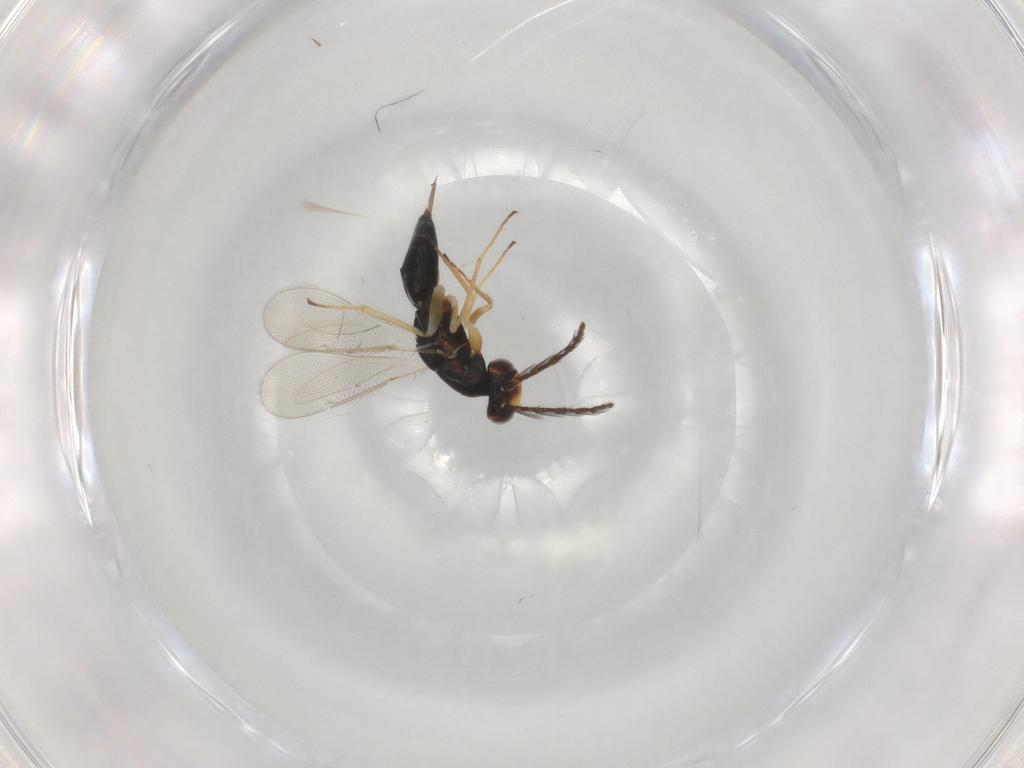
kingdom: Animalia
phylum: Arthropoda
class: Insecta
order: Hymenoptera
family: Eulophidae
